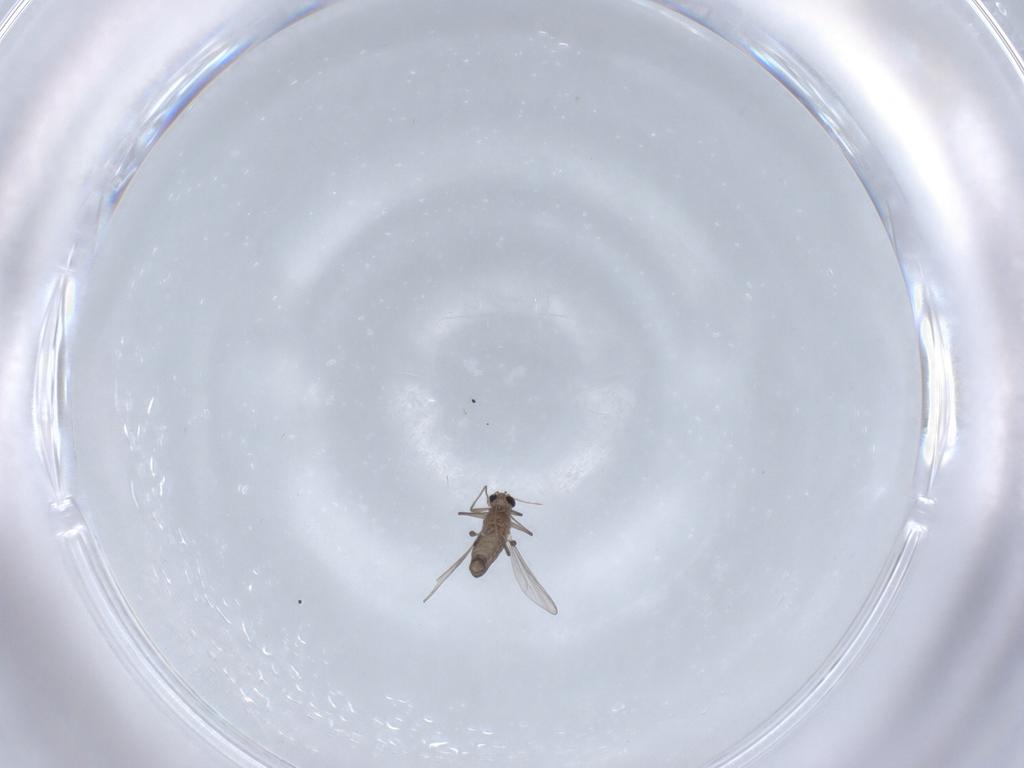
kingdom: Animalia
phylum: Arthropoda
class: Insecta
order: Diptera
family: Chironomidae
